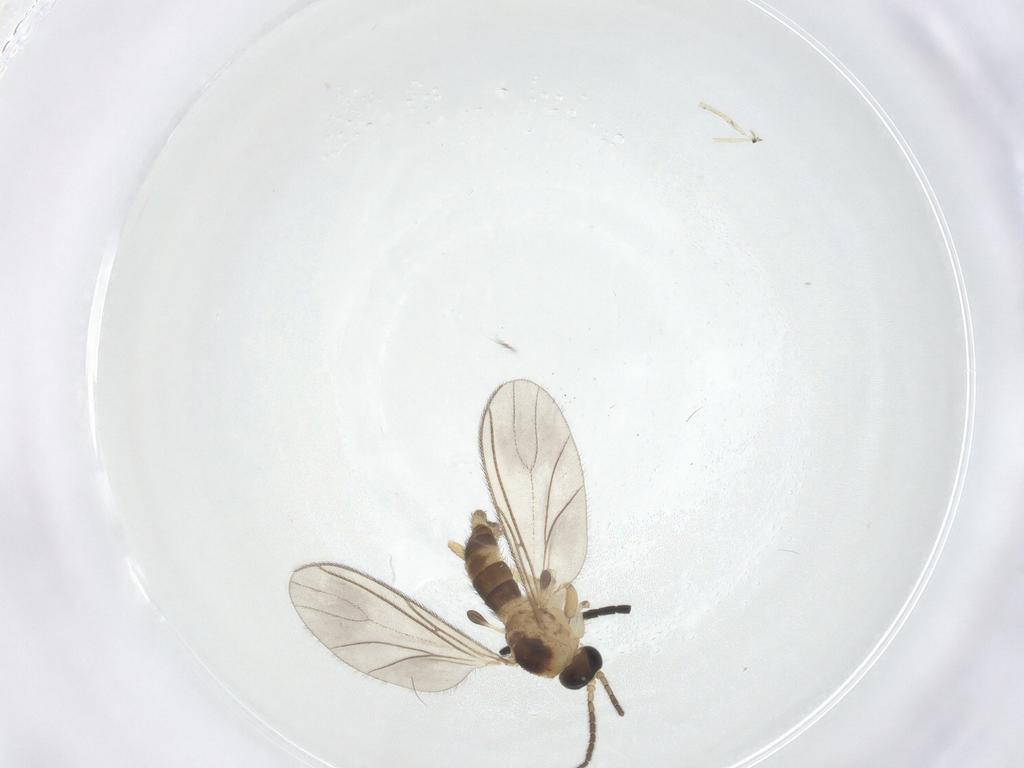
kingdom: Animalia
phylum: Arthropoda
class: Insecta
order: Diptera
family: Sciaridae
